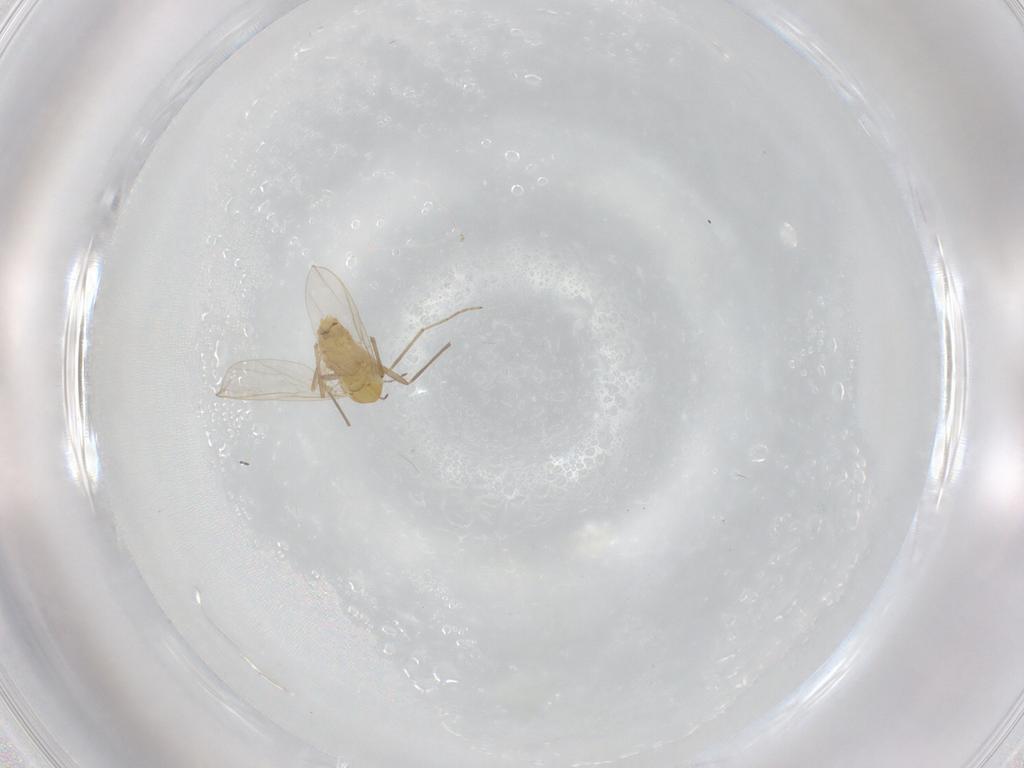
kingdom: Animalia
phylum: Arthropoda
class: Insecta
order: Diptera
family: Chironomidae
